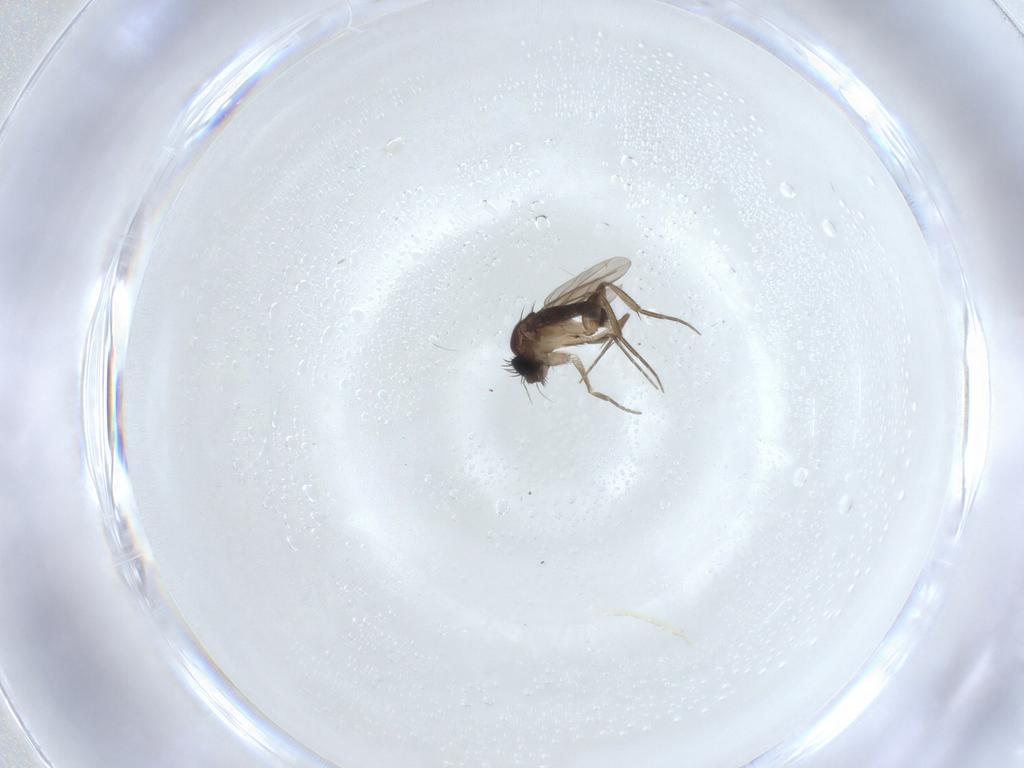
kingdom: Animalia
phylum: Arthropoda
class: Insecta
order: Diptera
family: Phoridae
